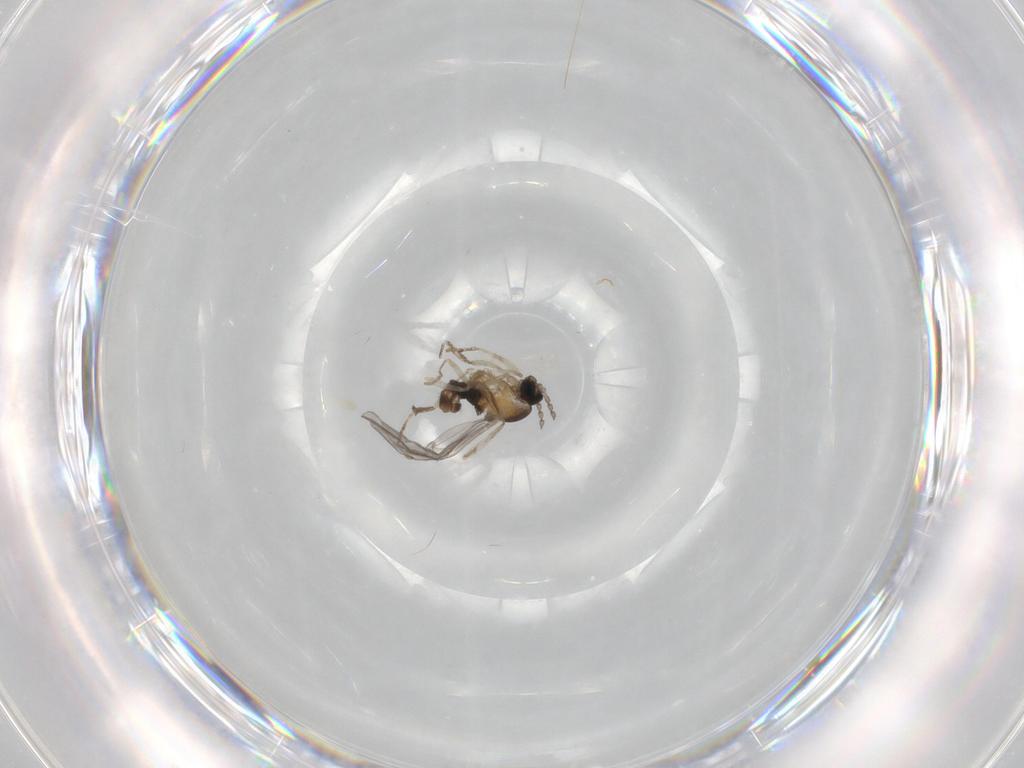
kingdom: Animalia
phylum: Arthropoda
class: Insecta
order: Diptera
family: Cecidomyiidae
